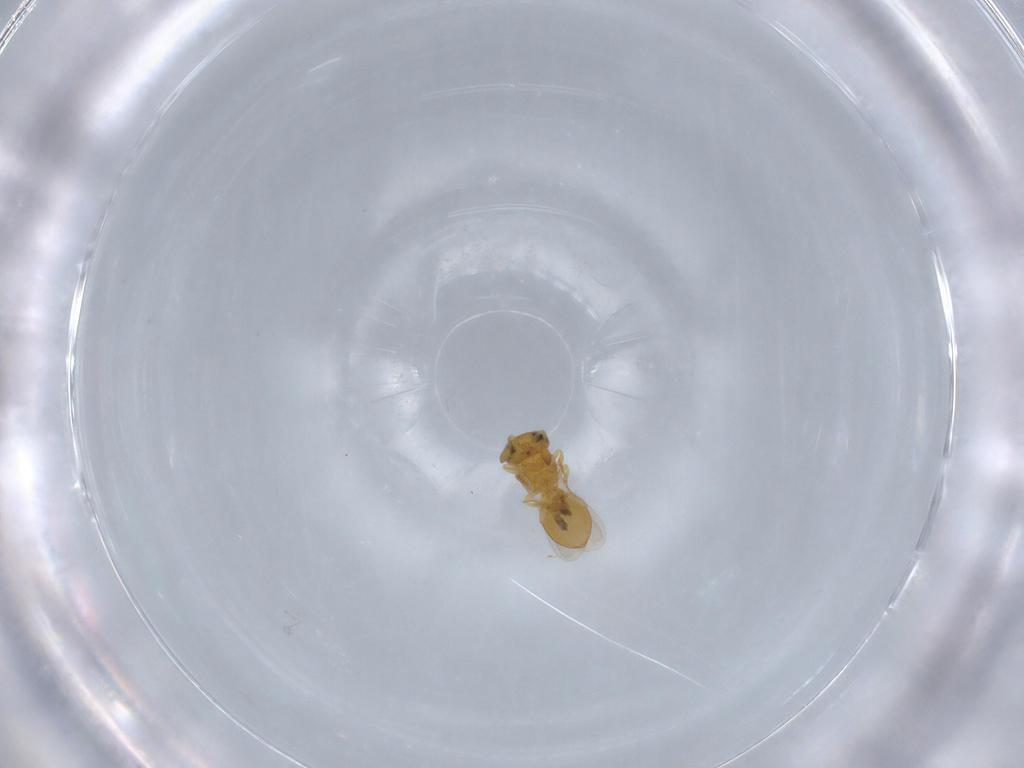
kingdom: Animalia
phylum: Arthropoda
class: Insecta
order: Hymenoptera
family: Scelionidae
